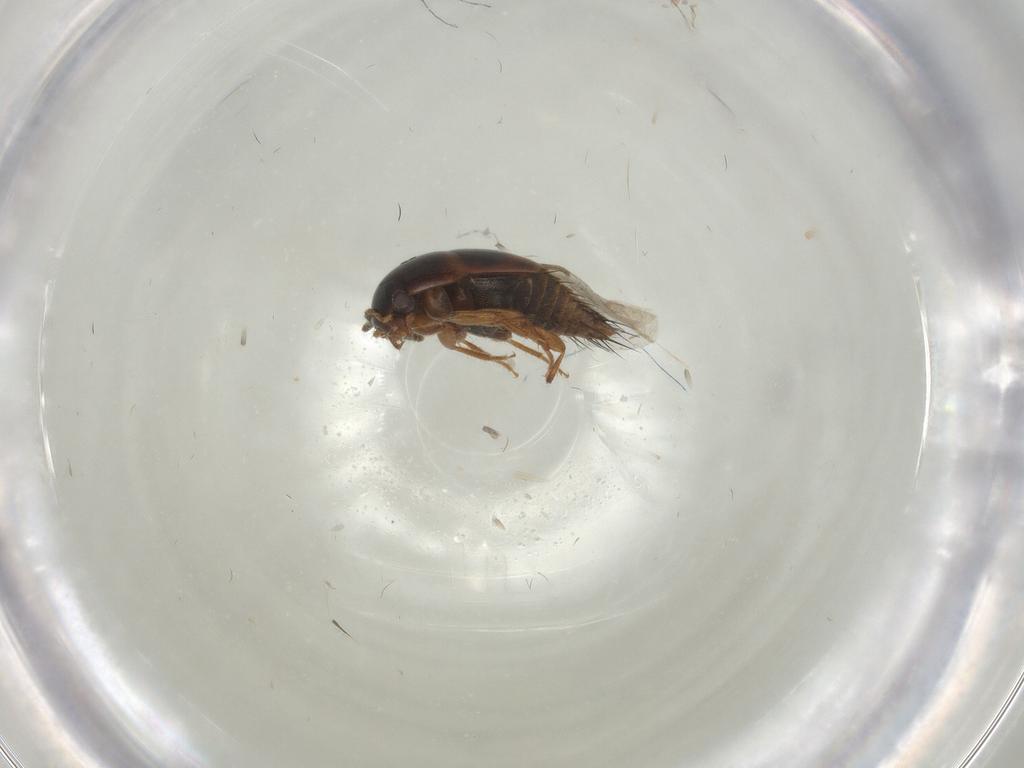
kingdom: Animalia
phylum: Arthropoda
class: Insecta
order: Coleoptera
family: Staphylinidae
